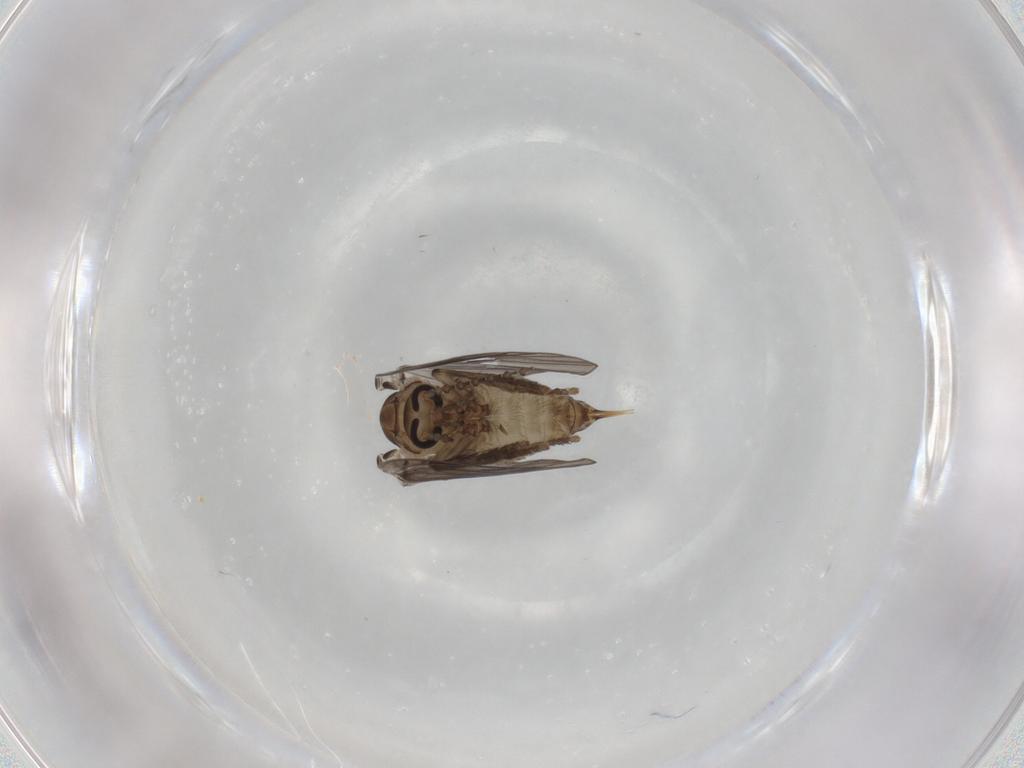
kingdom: Animalia
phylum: Arthropoda
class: Insecta
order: Diptera
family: Psychodidae
